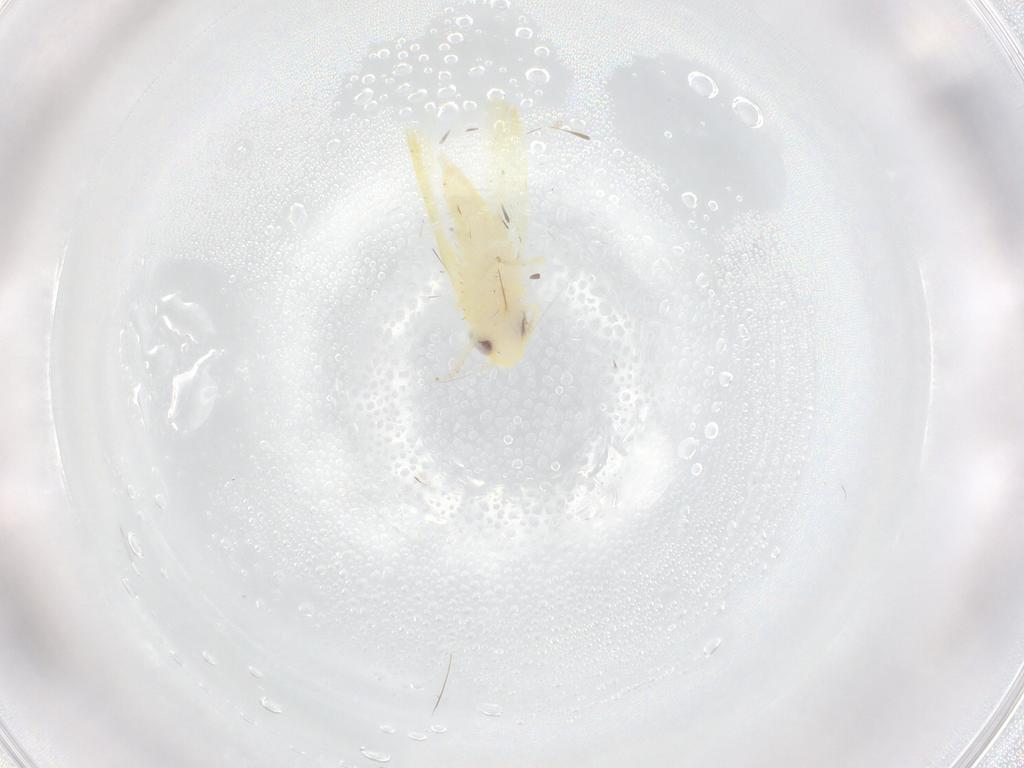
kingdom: Animalia
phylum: Arthropoda
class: Insecta
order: Hemiptera
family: Cicadellidae
